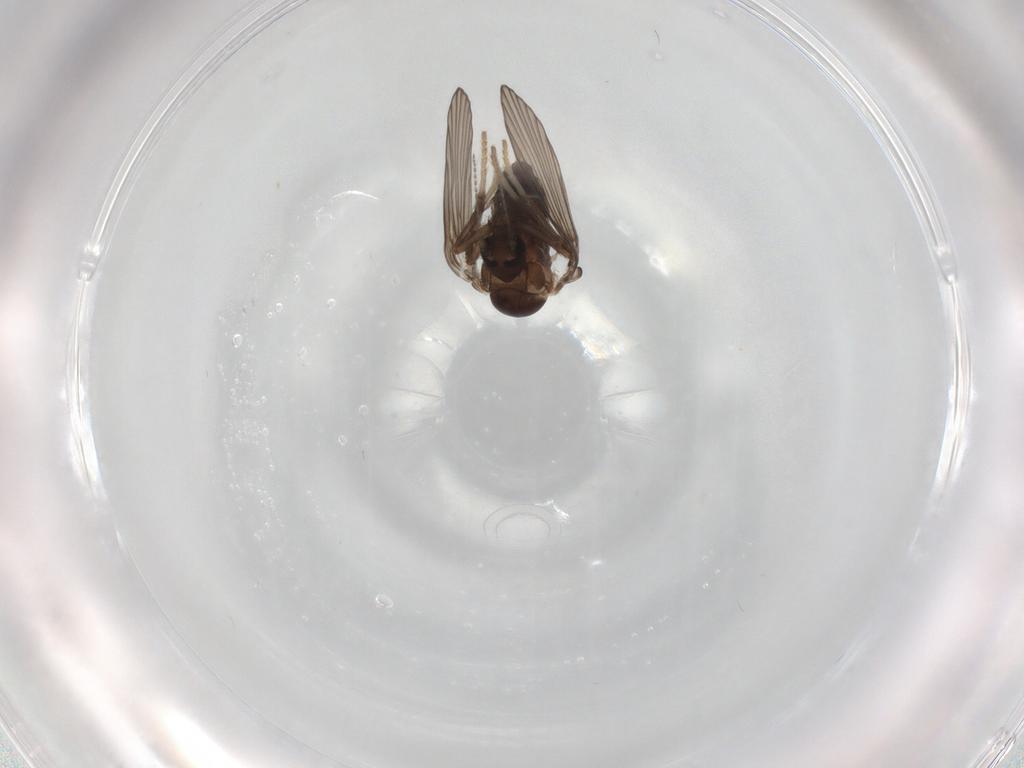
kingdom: Animalia
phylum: Arthropoda
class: Insecta
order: Diptera
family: Psychodidae
